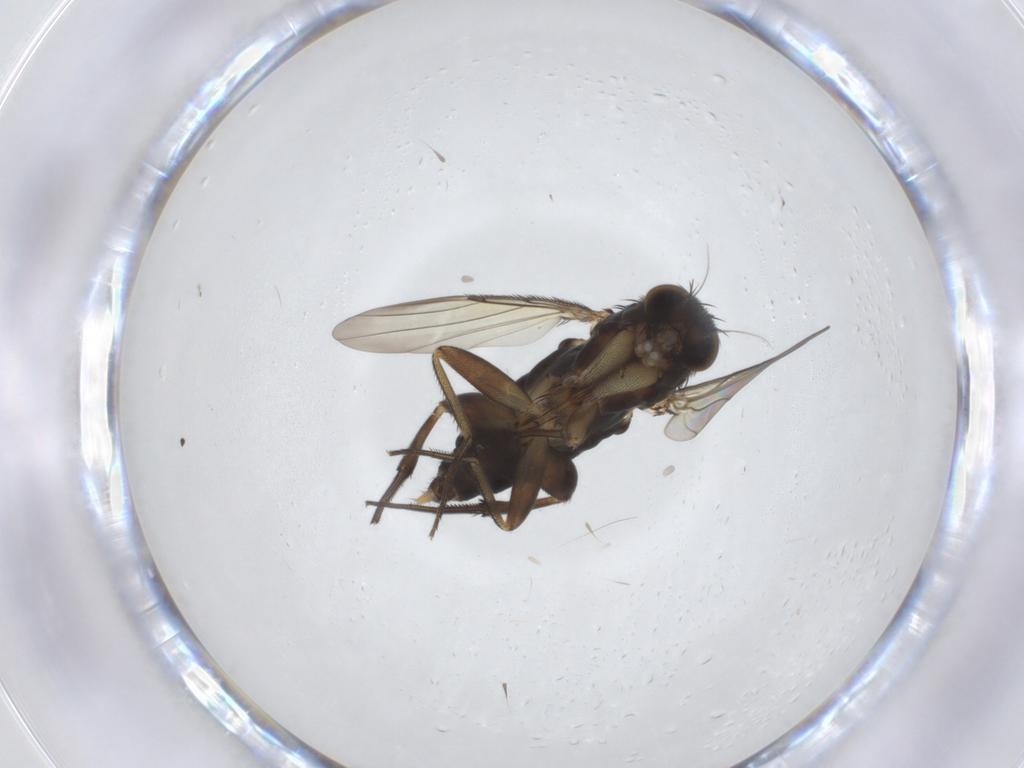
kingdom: Animalia
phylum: Arthropoda
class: Insecta
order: Diptera
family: Phoridae
